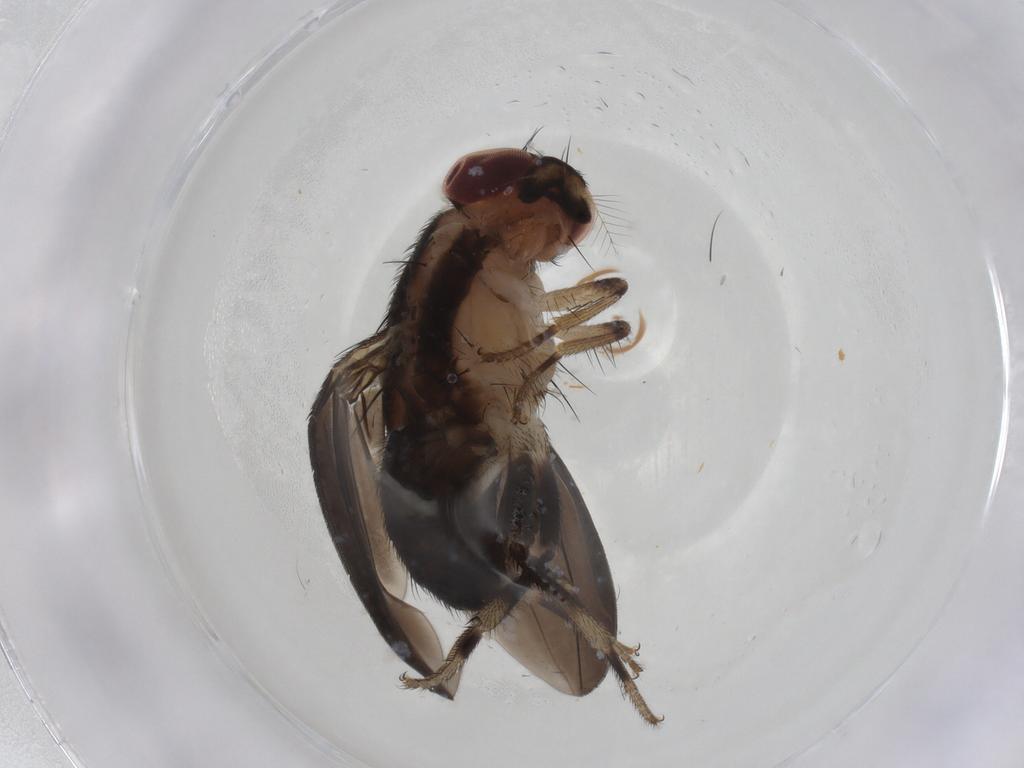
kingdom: Animalia
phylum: Arthropoda
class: Insecta
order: Diptera
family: Drosophilidae
